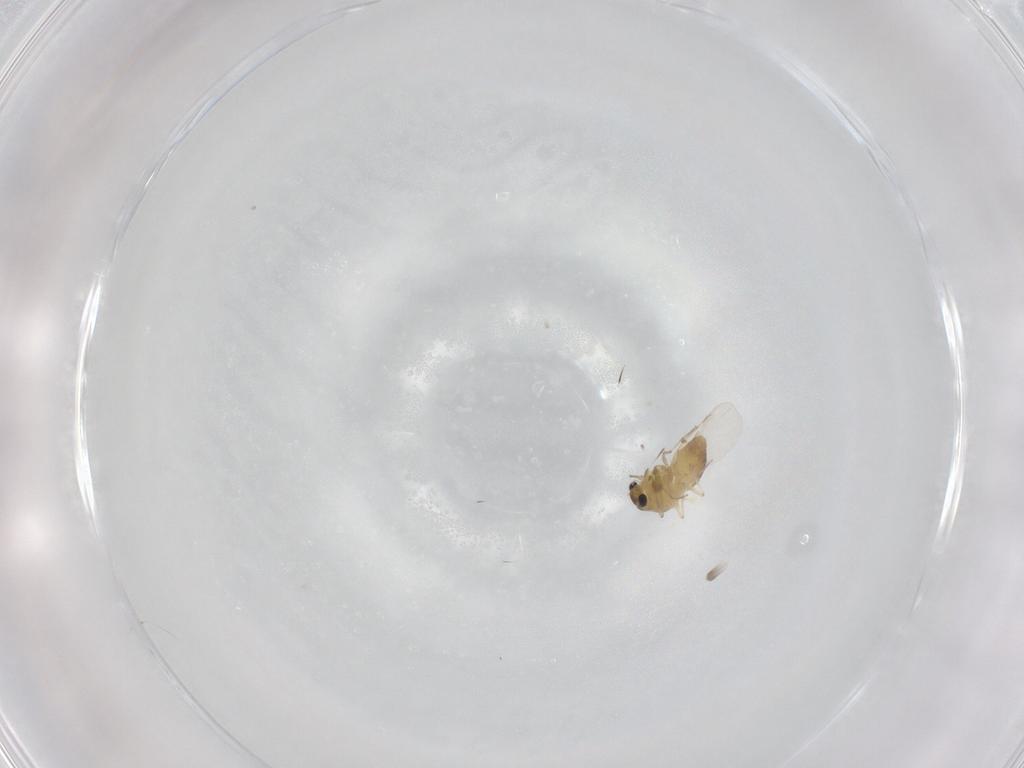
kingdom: Animalia
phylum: Arthropoda
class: Insecta
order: Diptera
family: Chironomidae
